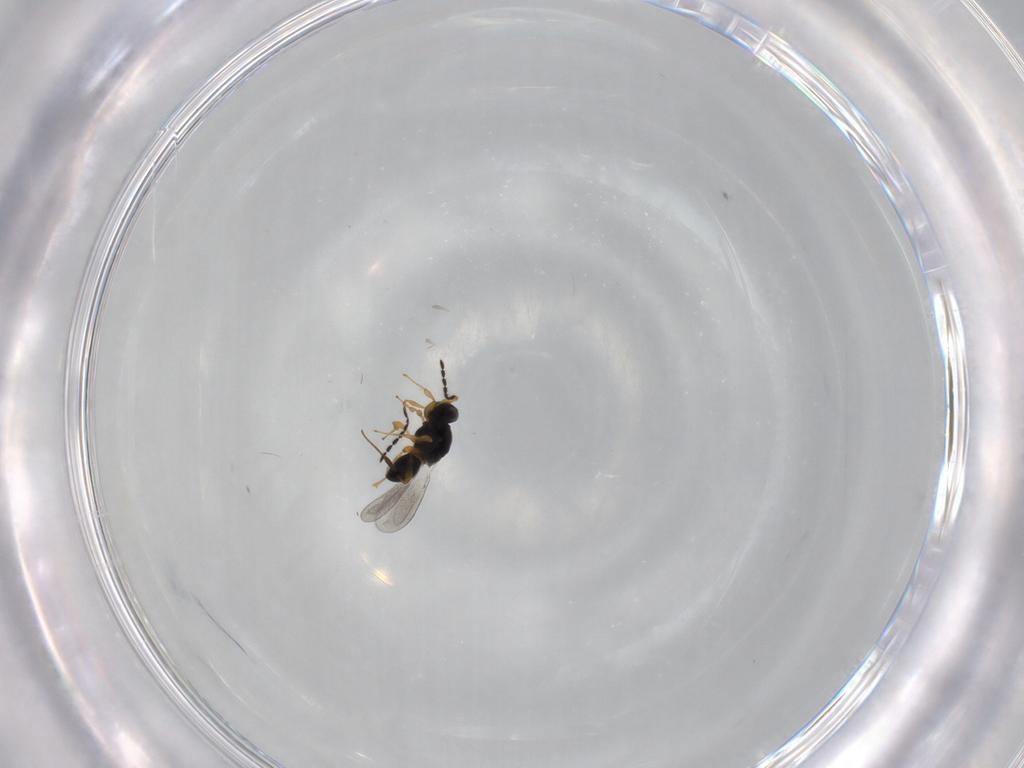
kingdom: Animalia
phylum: Arthropoda
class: Insecta
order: Hymenoptera
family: Platygastridae
